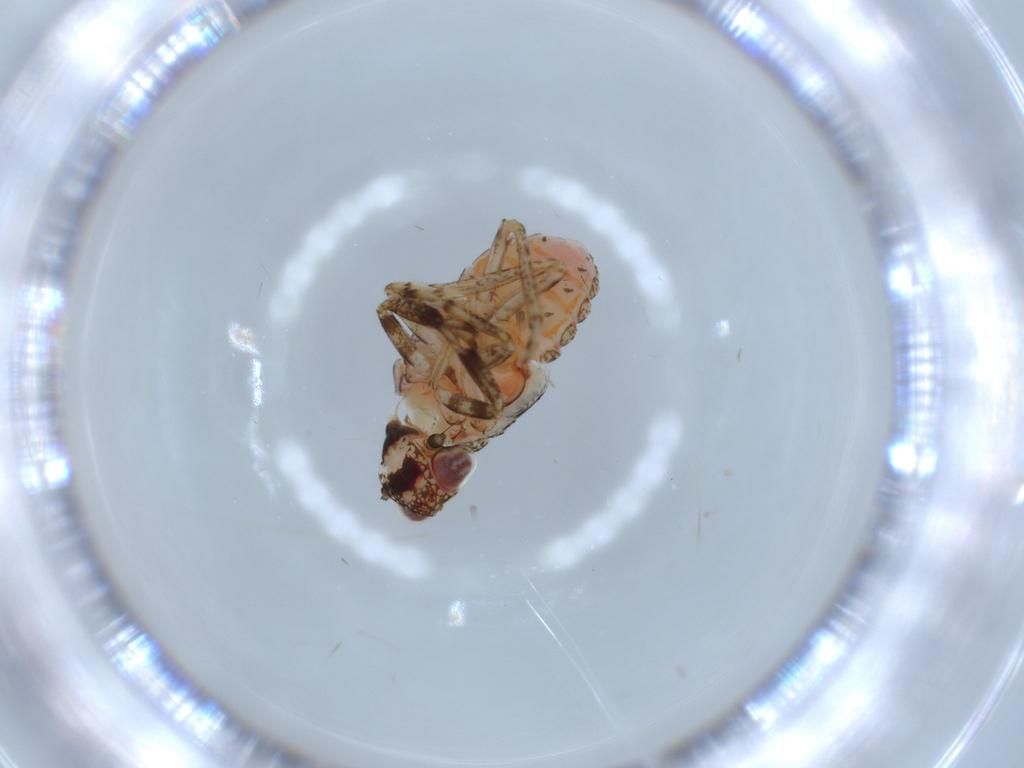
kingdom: Animalia
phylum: Arthropoda
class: Insecta
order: Hemiptera
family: Issidae
